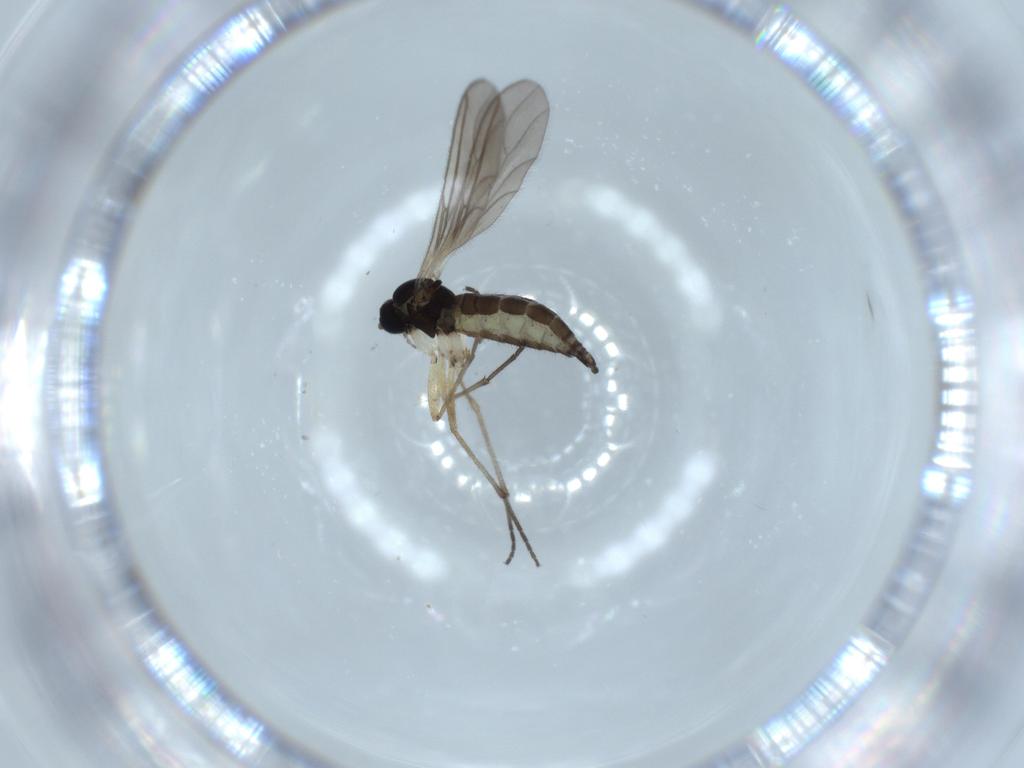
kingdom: Animalia
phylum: Arthropoda
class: Insecta
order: Diptera
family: Sciaridae
